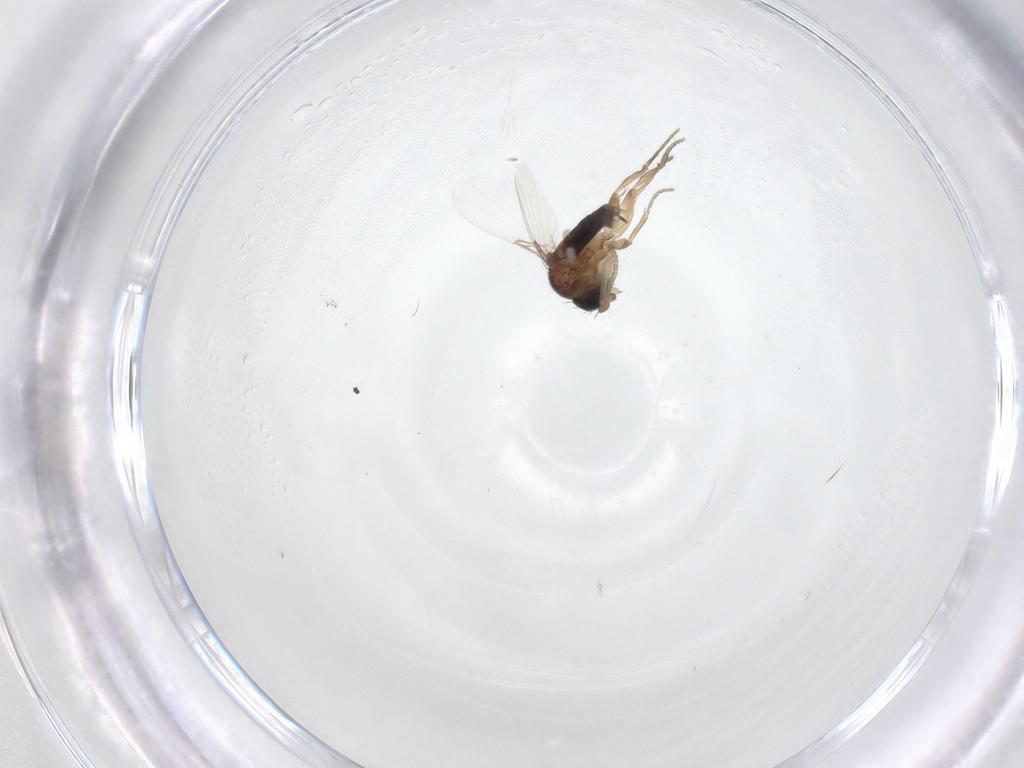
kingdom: Animalia
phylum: Arthropoda
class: Insecta
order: Diptera
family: Phoridae
